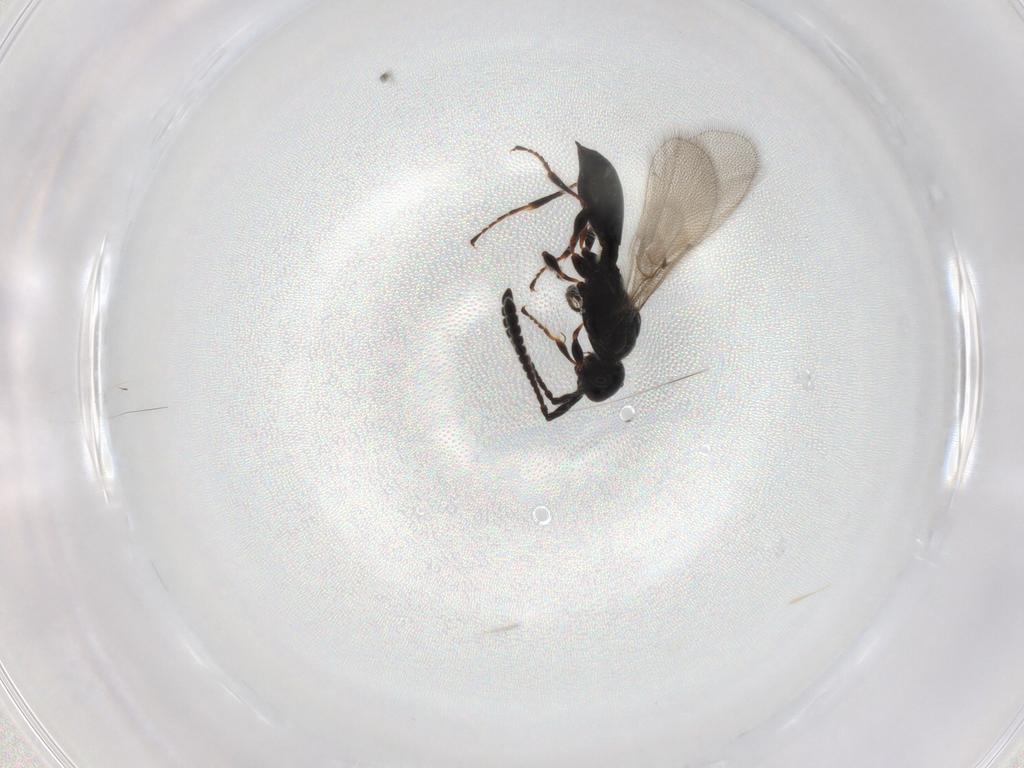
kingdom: Animalia
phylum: Arthropoda
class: Insecta
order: Hymenoptera
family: Diapriidae
